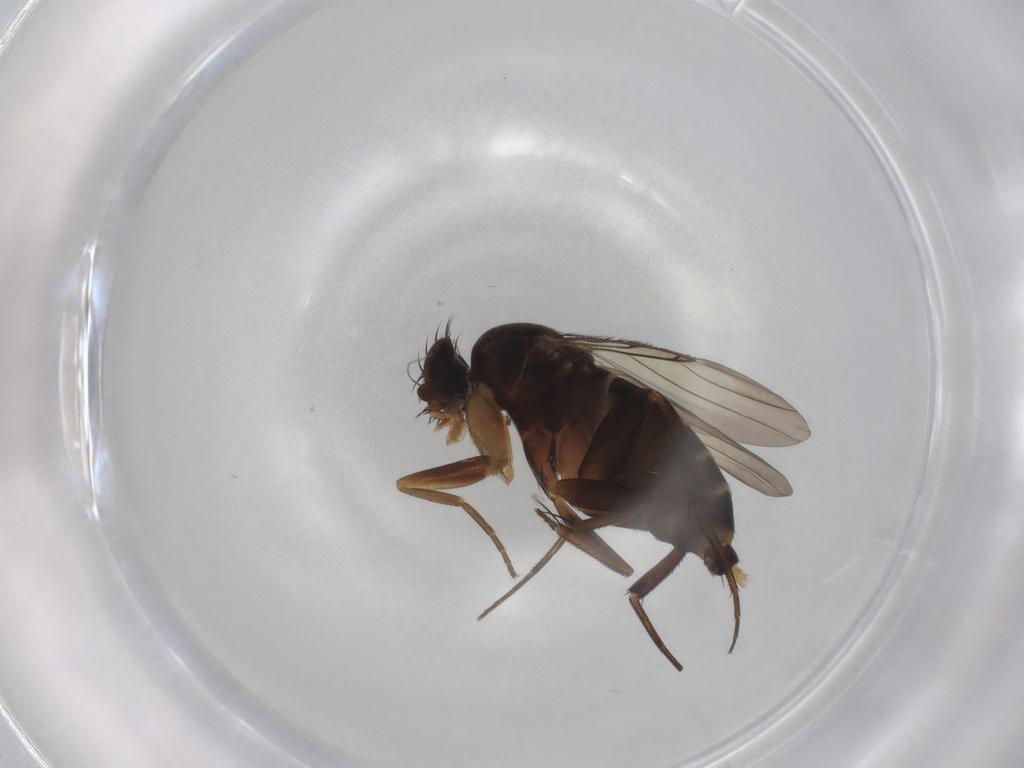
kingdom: Animalia
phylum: Arthropoda
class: Insecta
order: Diptera
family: Phoridae
